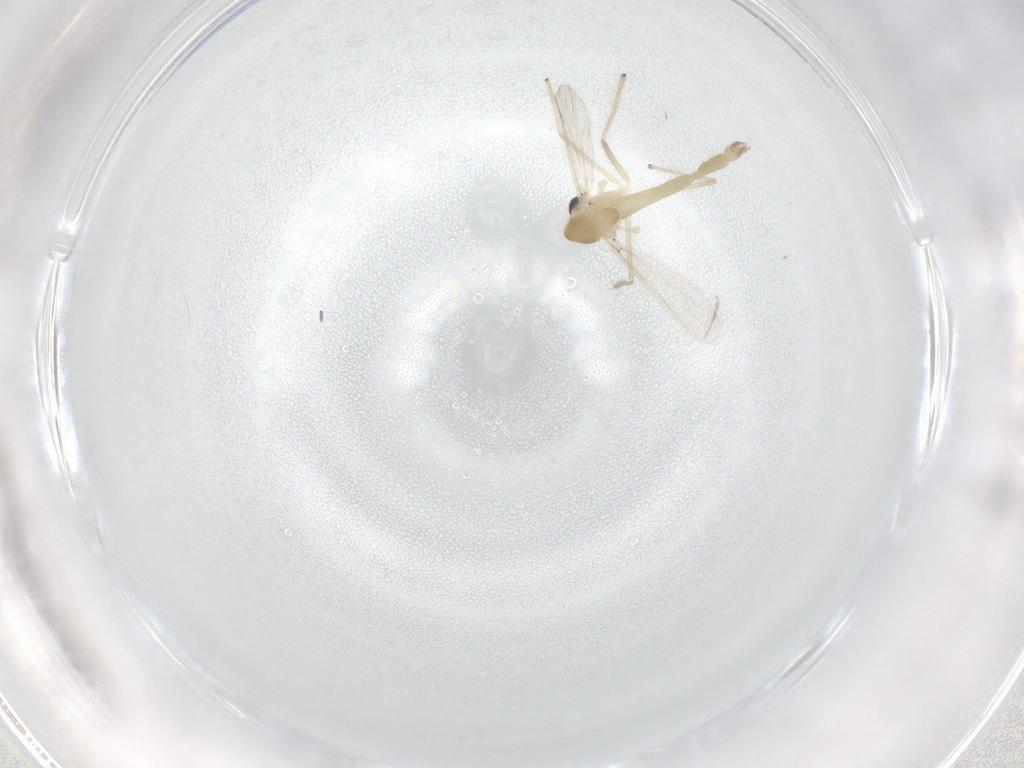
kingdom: Animalia
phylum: Arthropoda
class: Insecta
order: Diptera
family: Chironomidae
